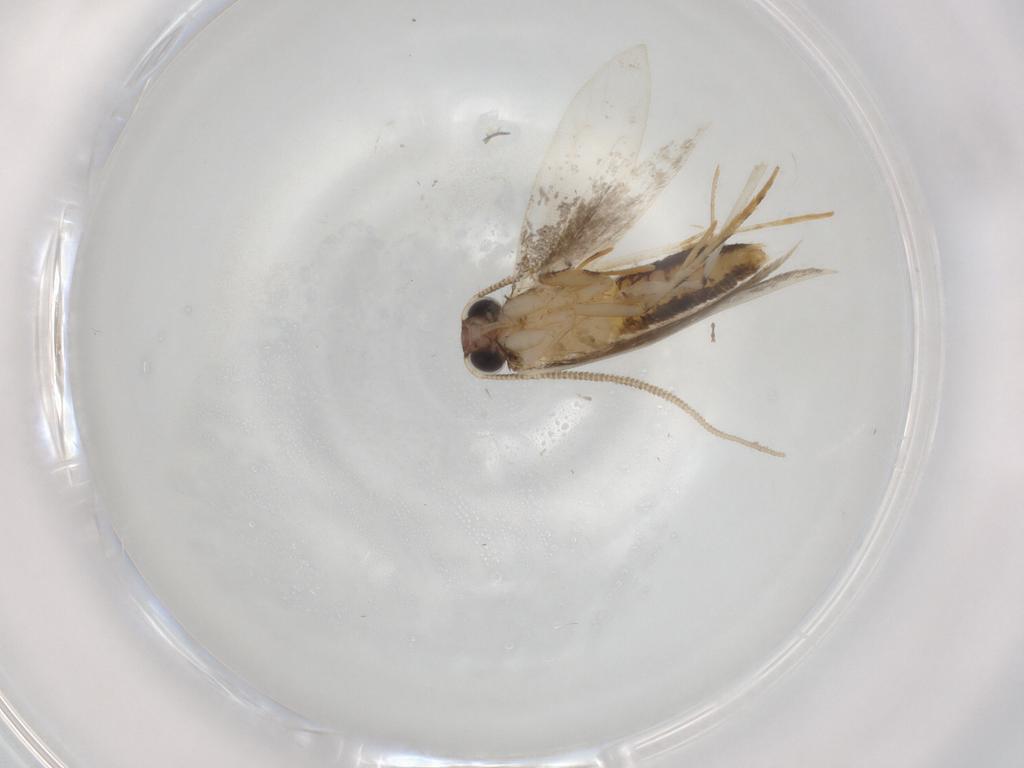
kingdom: Animalia
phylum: Arthropoda
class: Insecta
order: Lepidoptera
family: Tineidae
